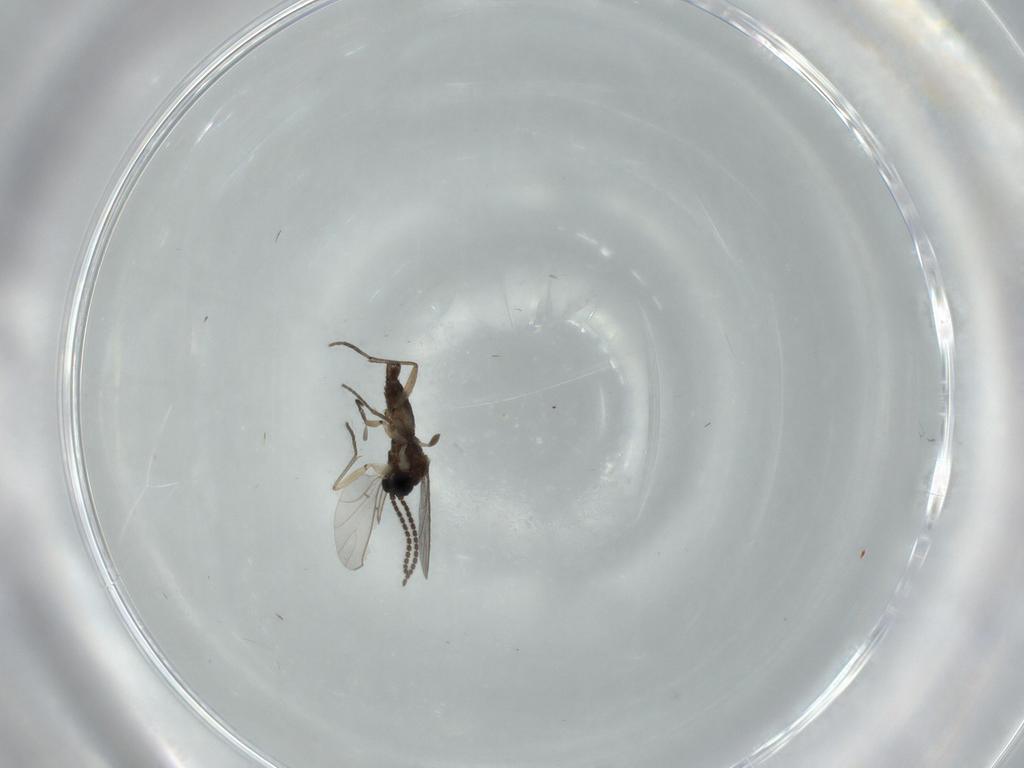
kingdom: Animalia
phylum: Arthropoda
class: Insecta
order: Diptera
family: Sciaridae
